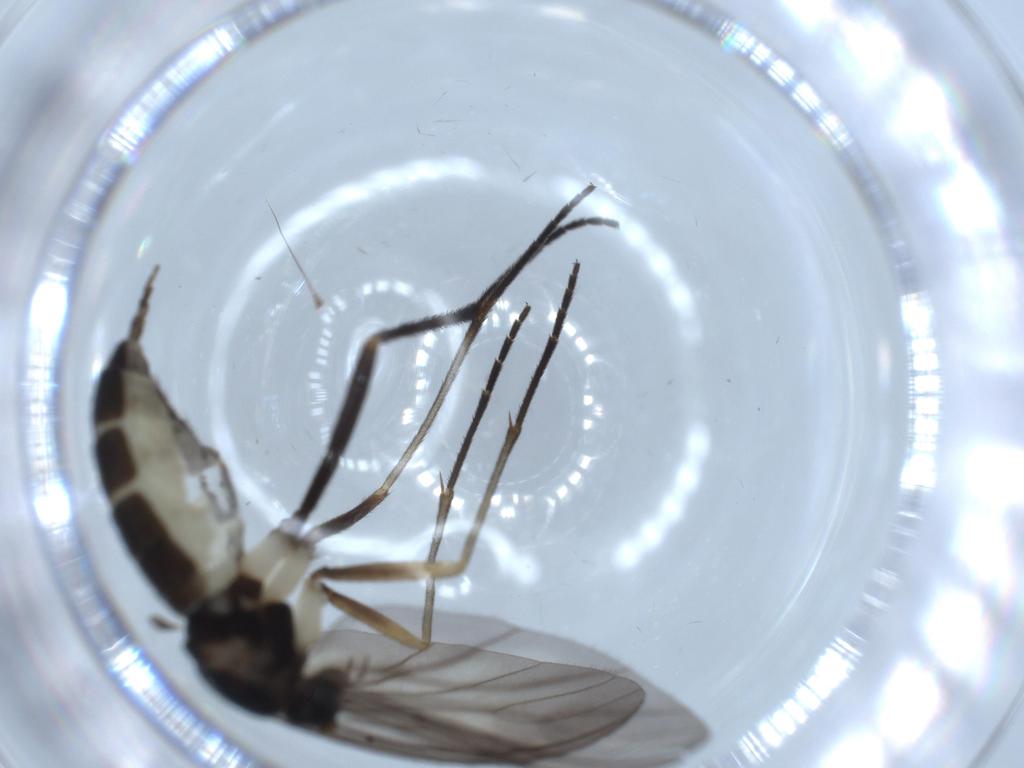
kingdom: Animalia
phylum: Arthropoda
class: Insecta
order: Diptera
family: Sciaridae
